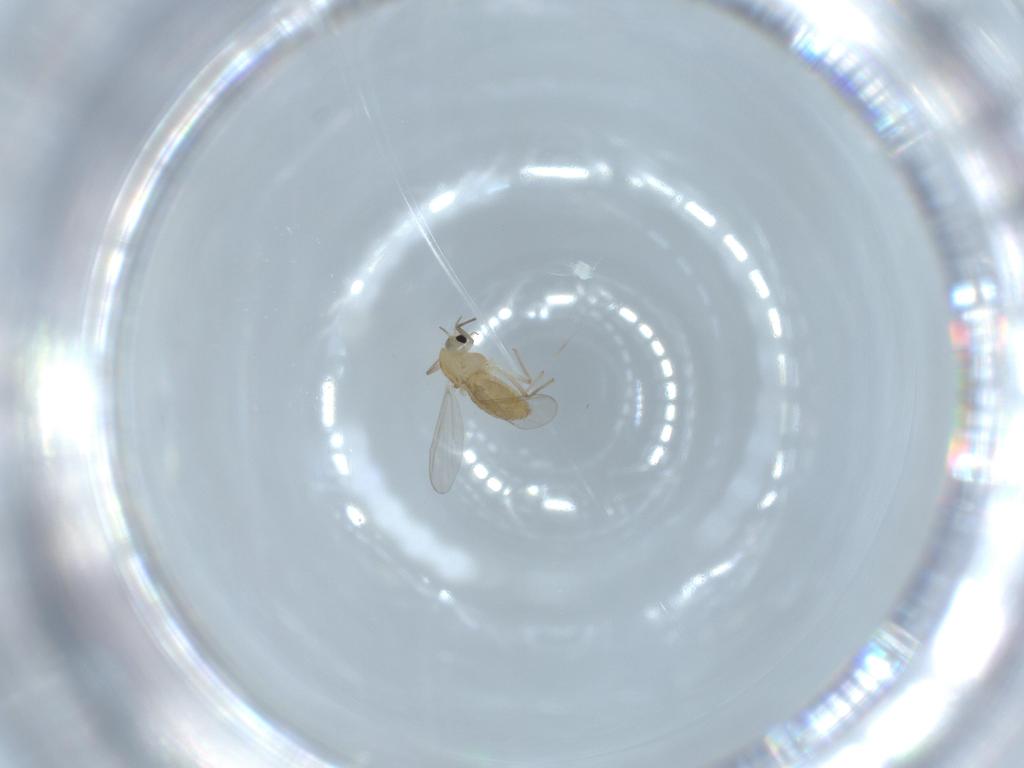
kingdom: Animalia
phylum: Arthropoda
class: Insecta
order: Diptera
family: Chironomidae
